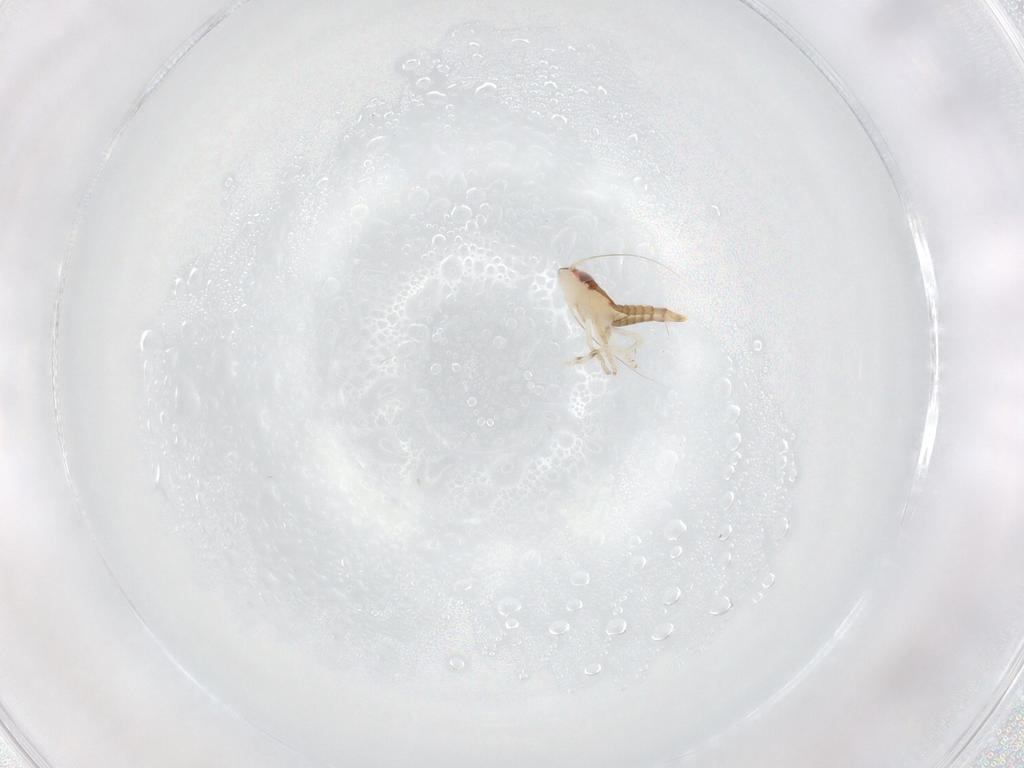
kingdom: Animalia
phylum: Arthropoda
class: Insecta
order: Hemiptera
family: Cicadellidae
